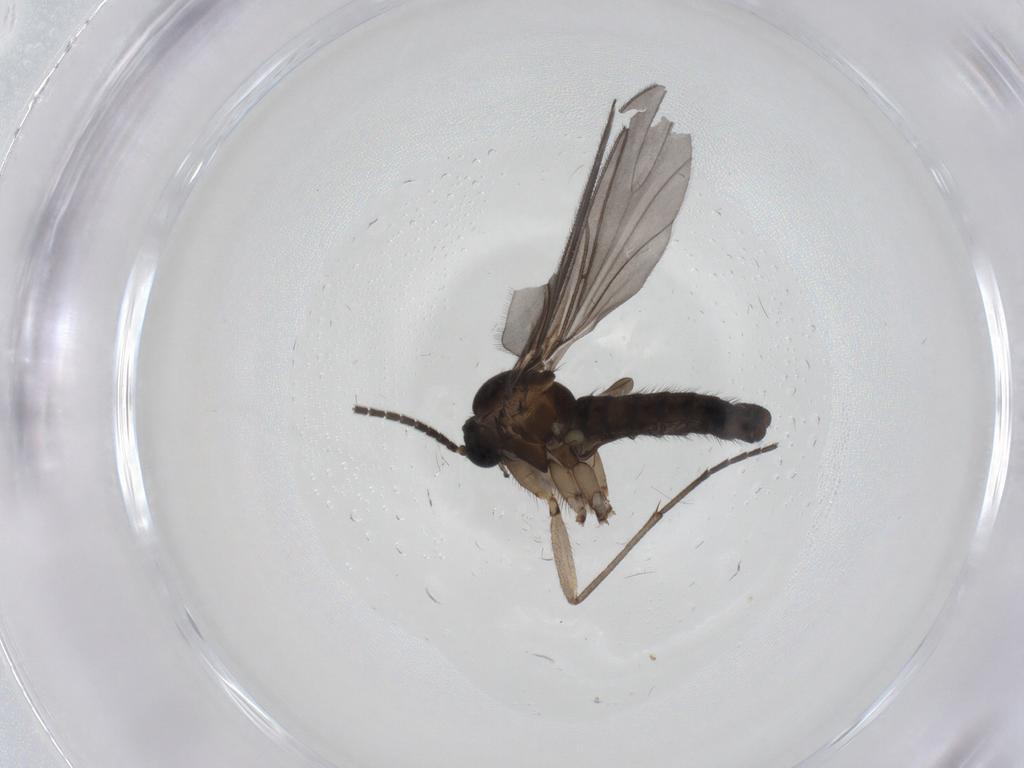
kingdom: Animalia
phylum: Arthropoda
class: Insecta
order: Diptera
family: Sciaridae
